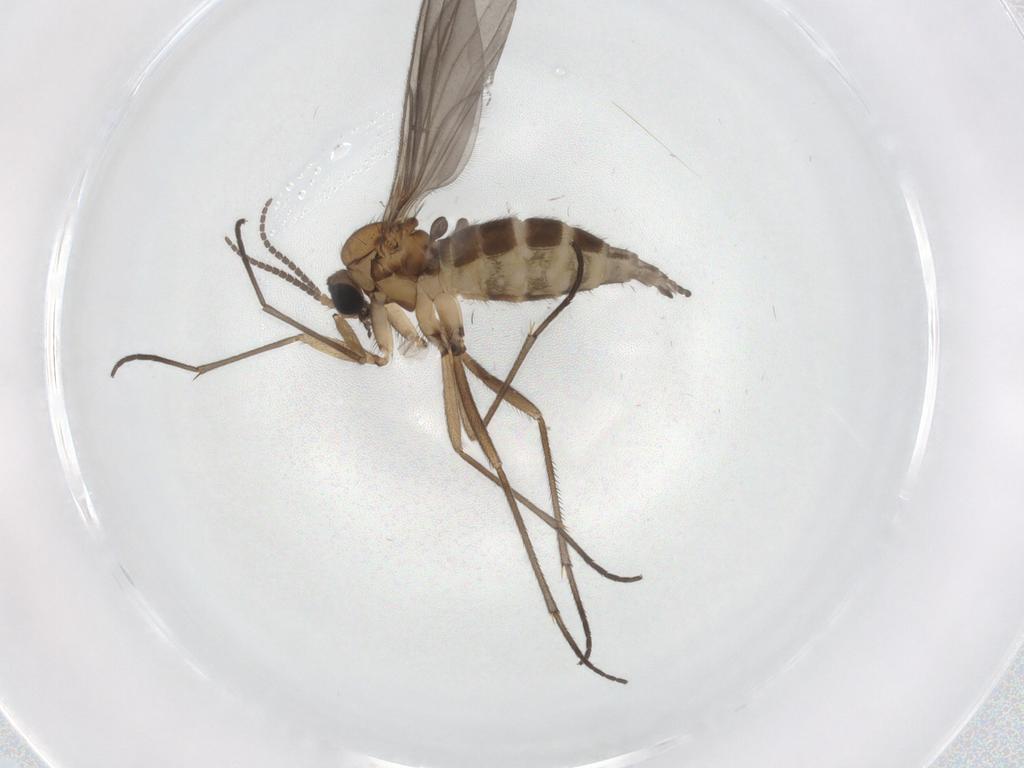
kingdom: Animalia
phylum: Arthropoda
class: Insecta
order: Diptera
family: Sciaridae
